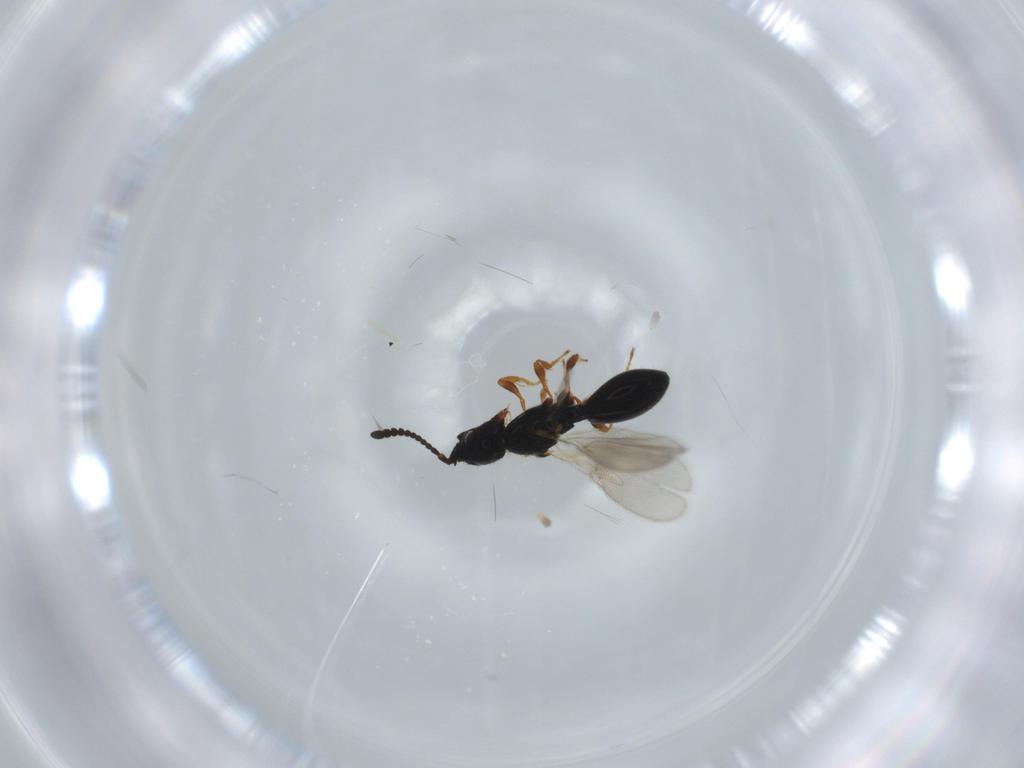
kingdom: Animalia
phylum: Arthropoda
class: Insecta
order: Hymenoptera
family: Diapriidae
